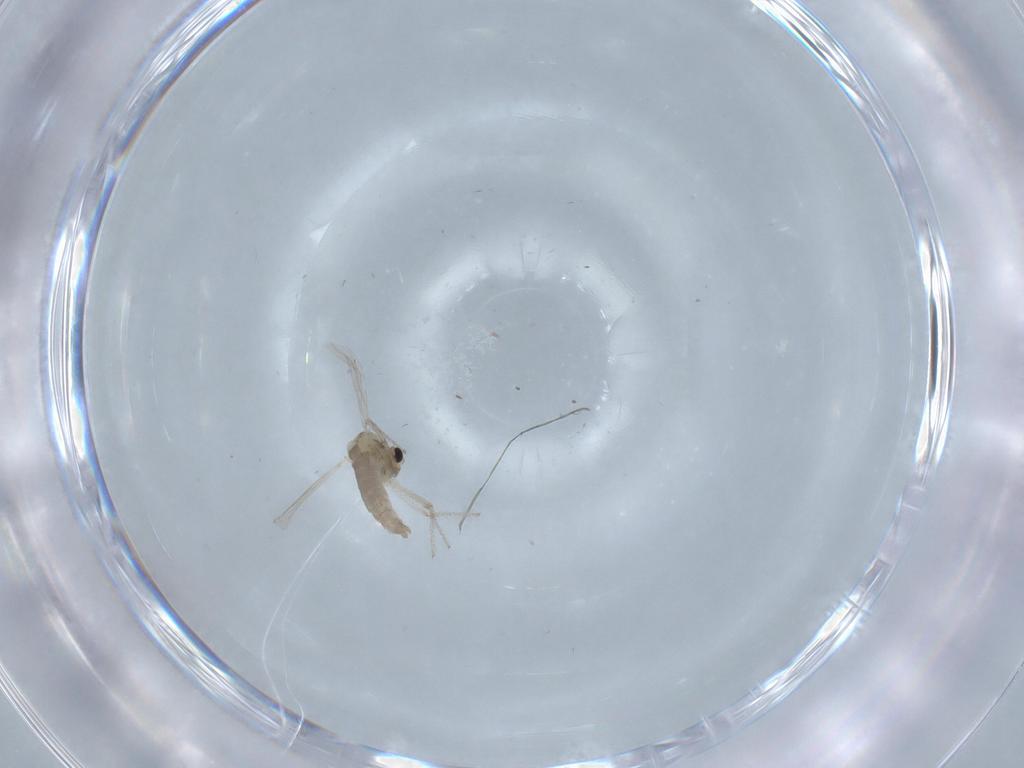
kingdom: Animalia
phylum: Arthropoda
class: Insecta
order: Diptera
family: Chironomidae
